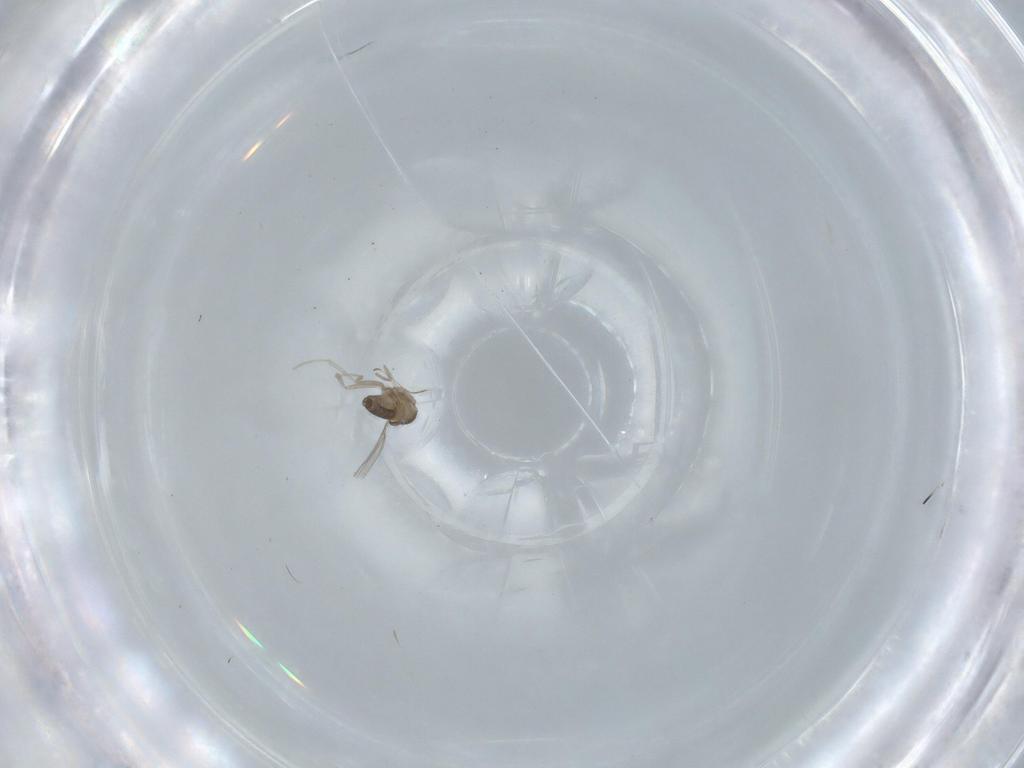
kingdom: Animalia
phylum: Arthropoda
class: Insecta
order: Diptera
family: Cecidomyiidae
